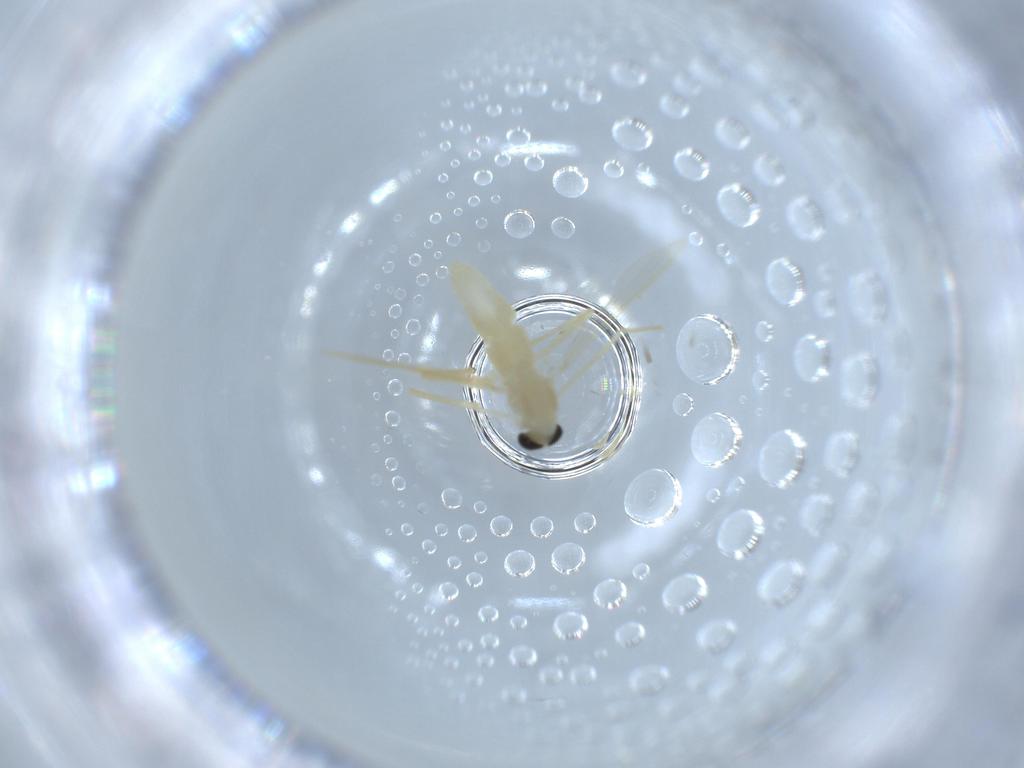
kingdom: Animalia
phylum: Arthropoda
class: Insecta
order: Diptera
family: Chironomidae
